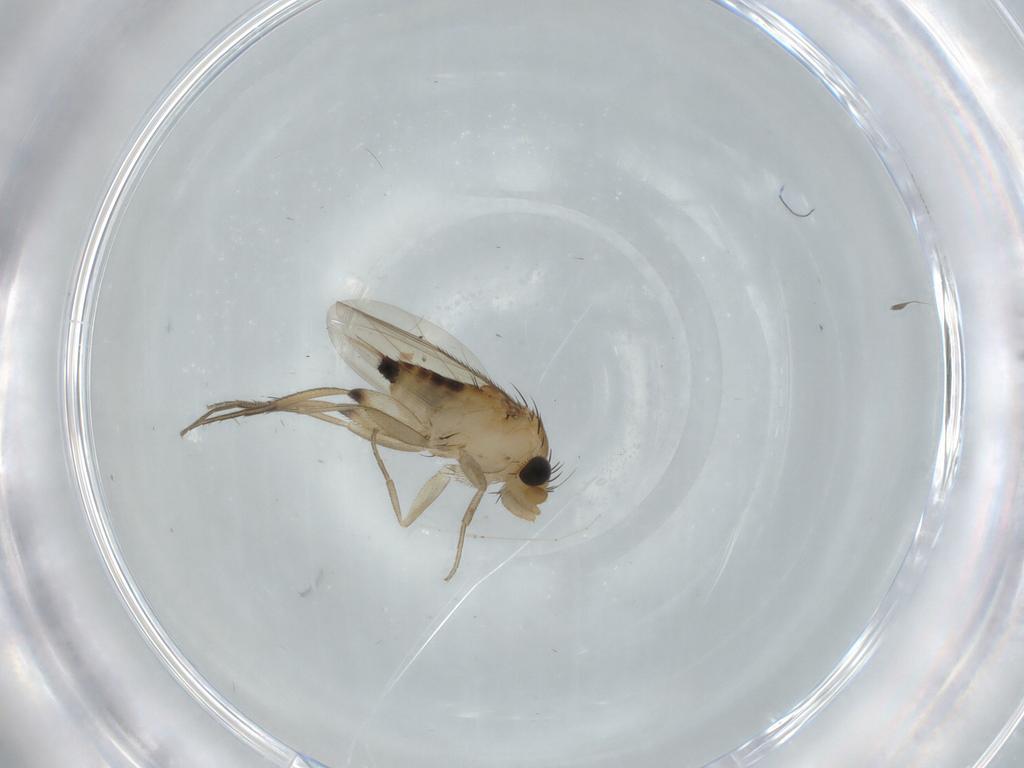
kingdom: Animalia
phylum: Arthropoda
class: Insecta
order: Diptera
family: Phoridae
